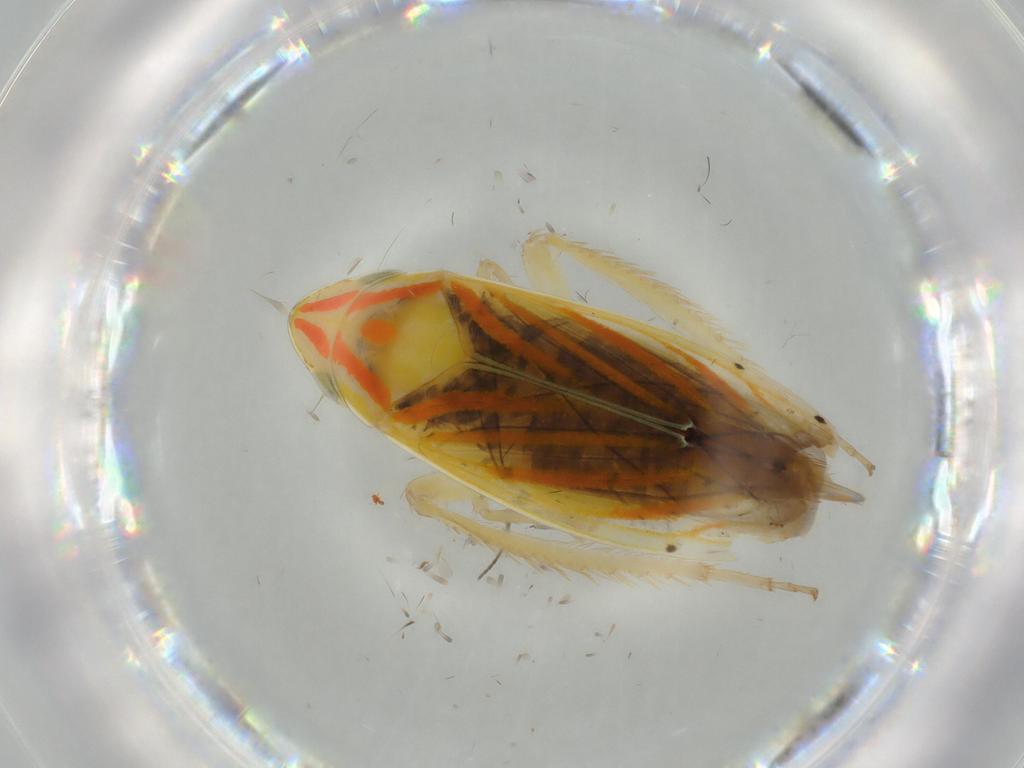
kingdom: Animalia
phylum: Arthropoda
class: Insecta
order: Hemiptera
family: Cicadellidae
